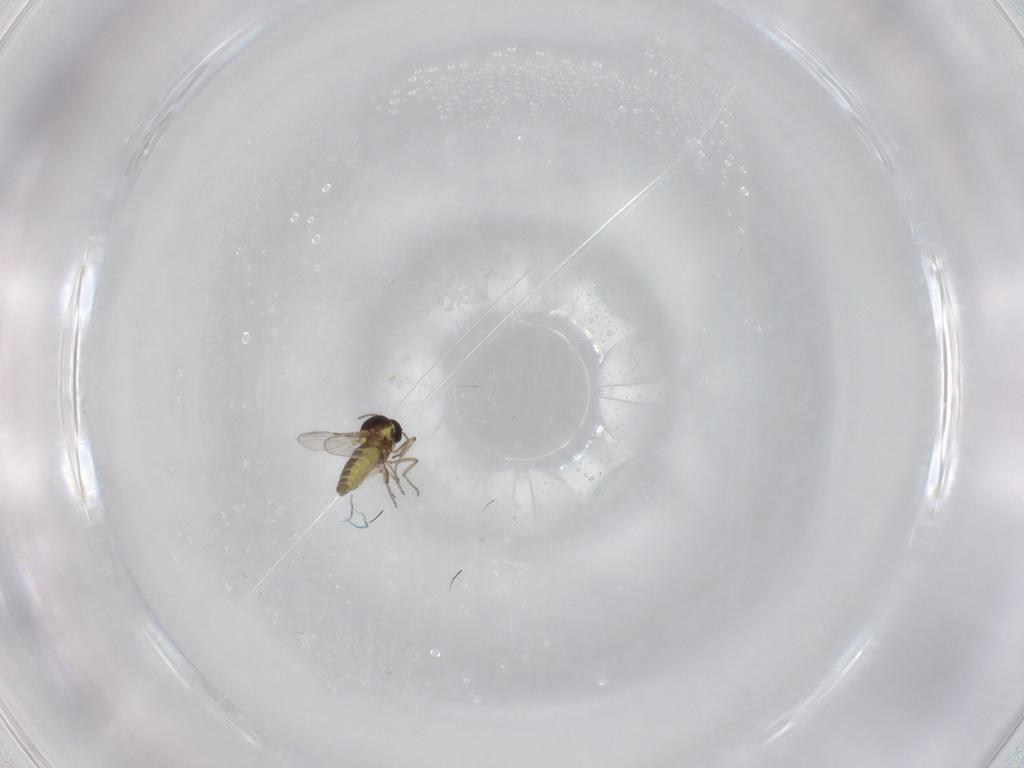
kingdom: Animalia
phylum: Arthropoda
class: Insecta
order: Diptera
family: Ceratopogonidae
